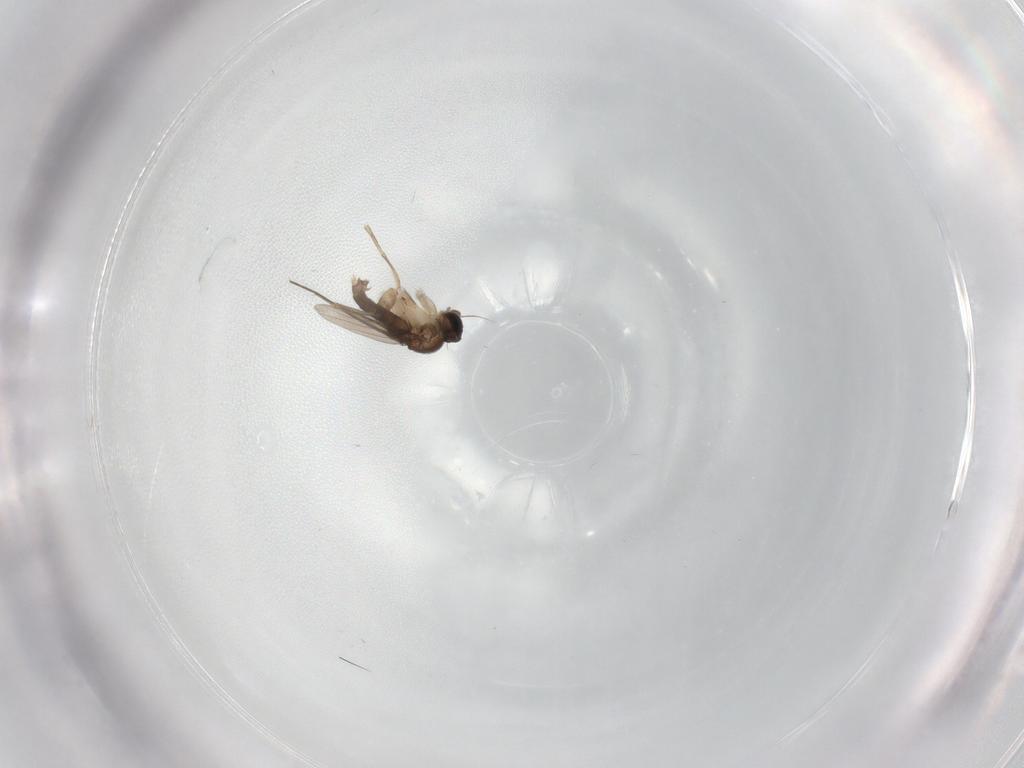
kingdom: Animalia
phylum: Arthropoda
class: Insecta
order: Diptera
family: Phoridae
